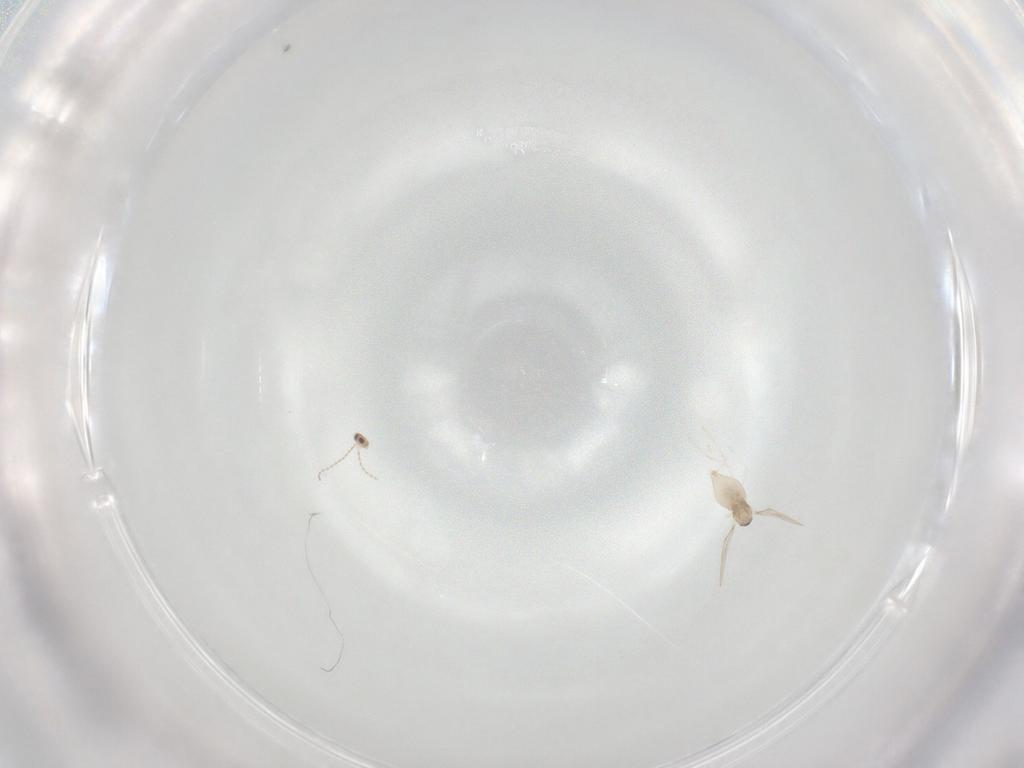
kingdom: Animalia
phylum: Arthropoda
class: Insecta
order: Diptera
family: Cecidomyiidae
